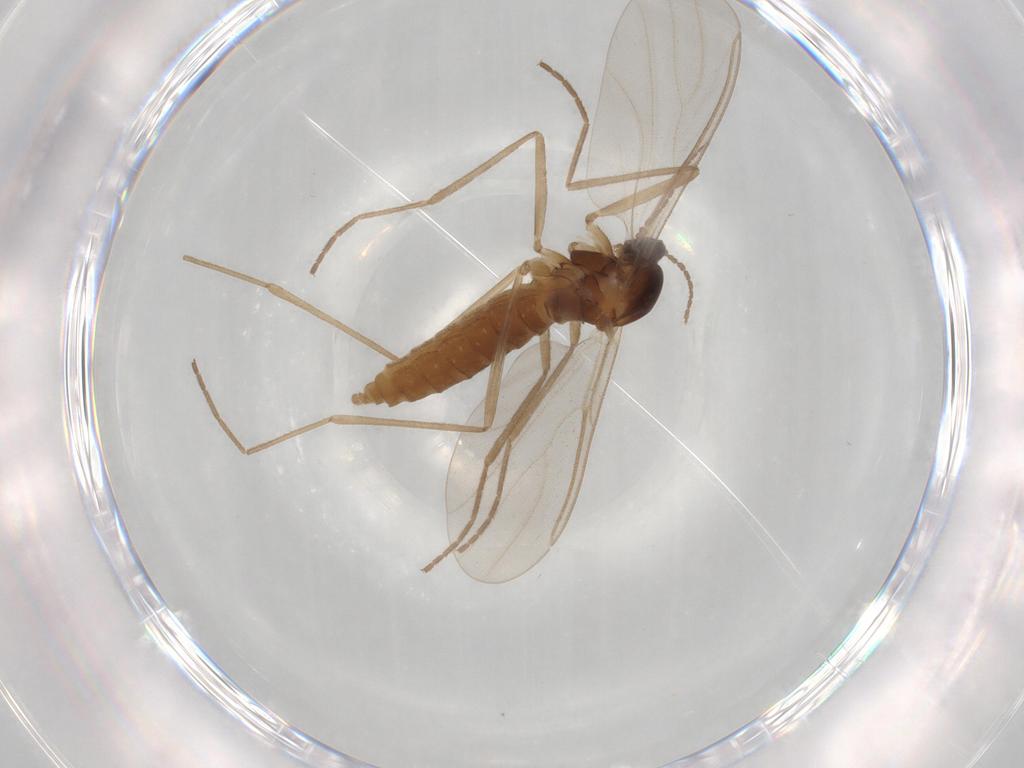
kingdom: Animalia
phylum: Arthropoda
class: Insecta
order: Diptera
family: Cecidomyiidae
